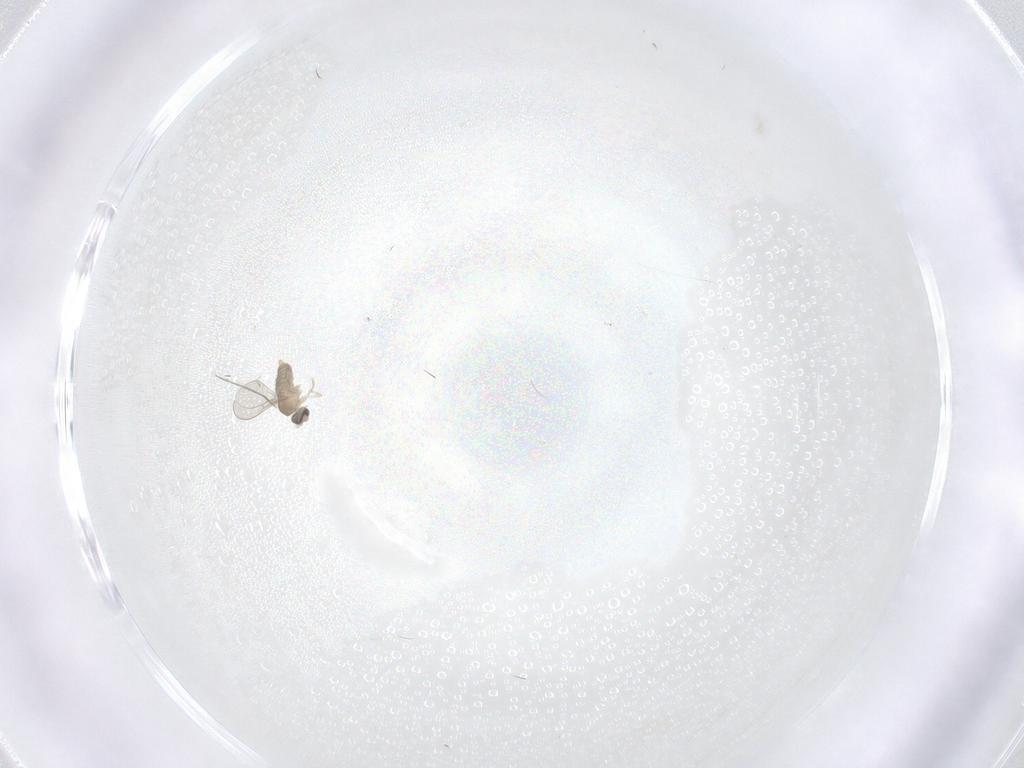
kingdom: Animalia
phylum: Arthropoda
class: Insecta
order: Diptera
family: Cecidomyiidae
